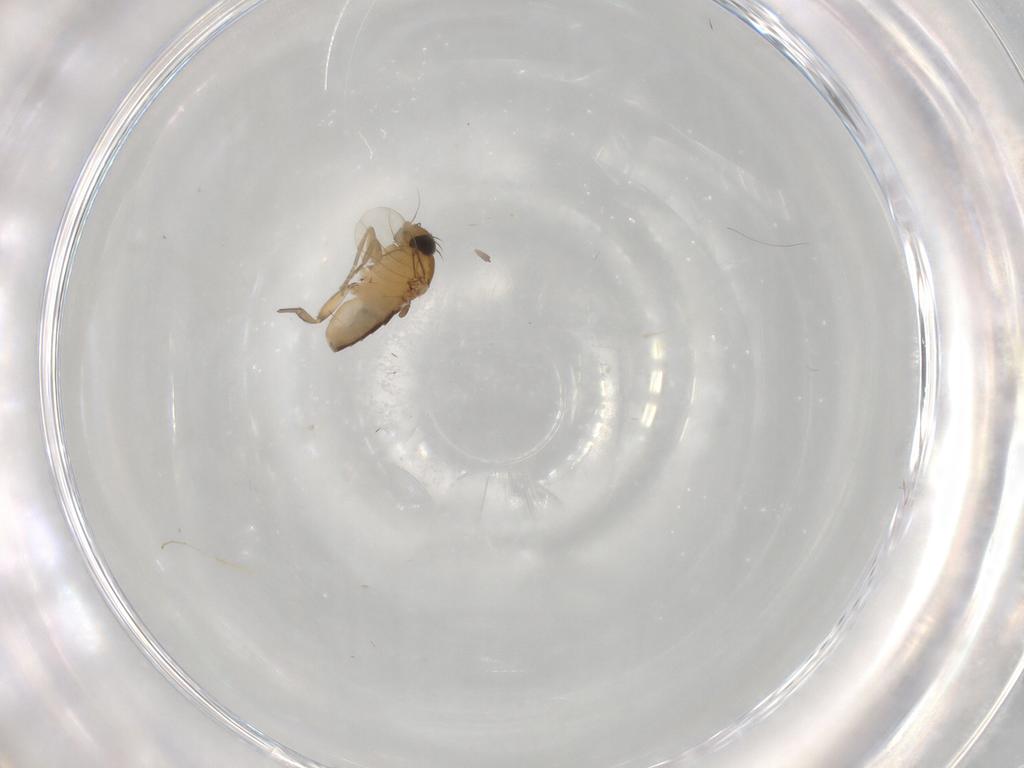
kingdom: Animalia
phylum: Arthropoda
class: Insecta
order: Diptera
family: Phoridae
